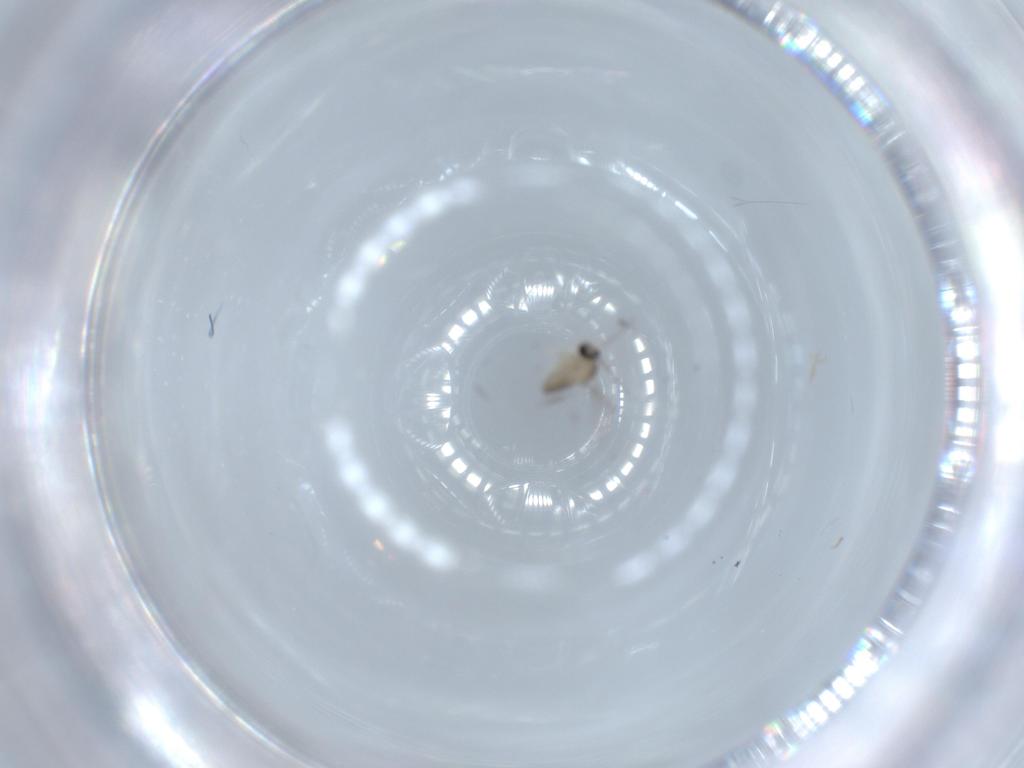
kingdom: Animalia
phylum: Arthropoda
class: Insecta
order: Diptera
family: Cecidomyiidae
